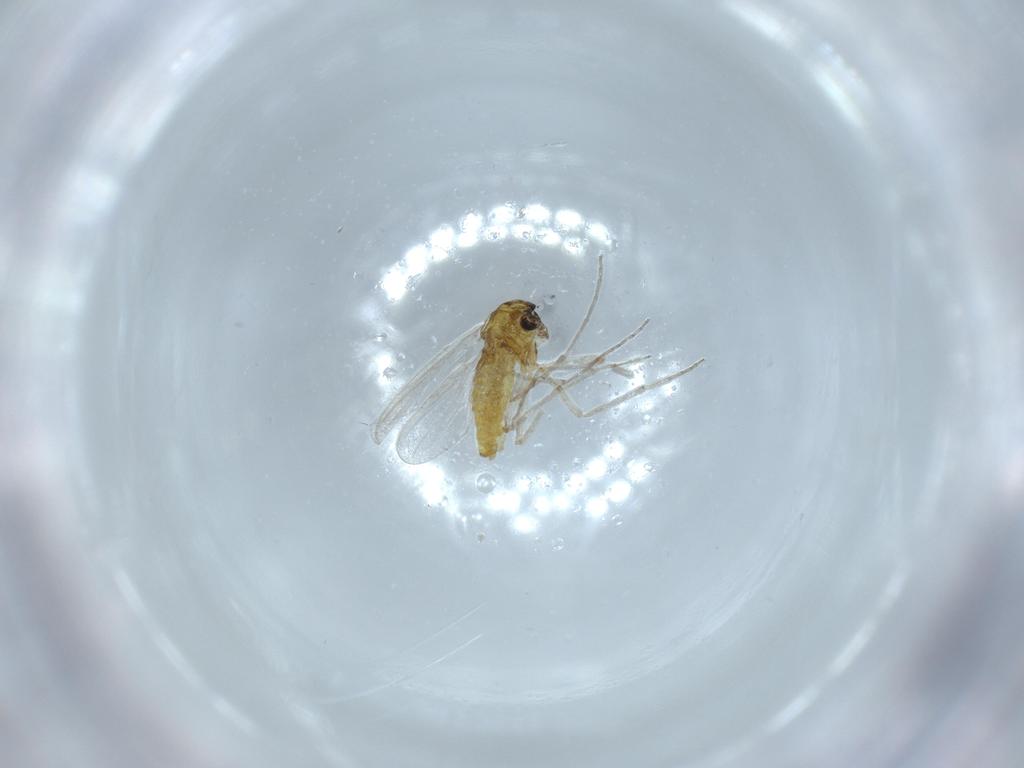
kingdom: Animalia
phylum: Arthropoda
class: Insecta
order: Diptera
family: Chironomidae
